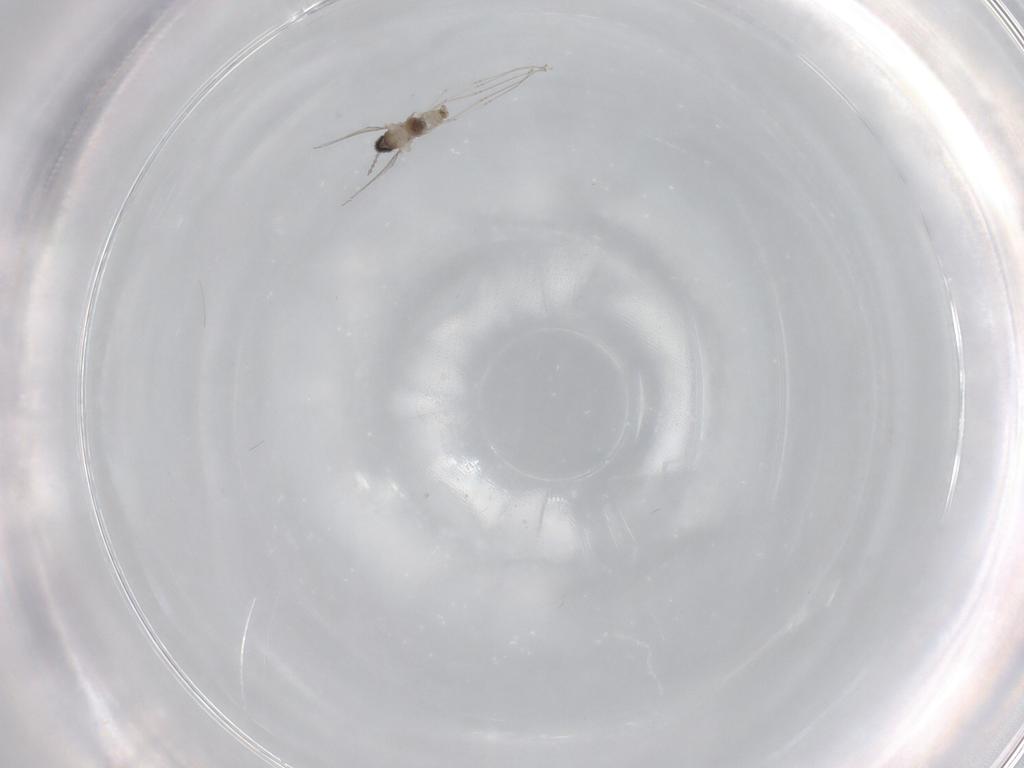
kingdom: Animalia
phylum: Arthropoda
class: Insecta
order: Diptera
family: Cecidomyiidae
